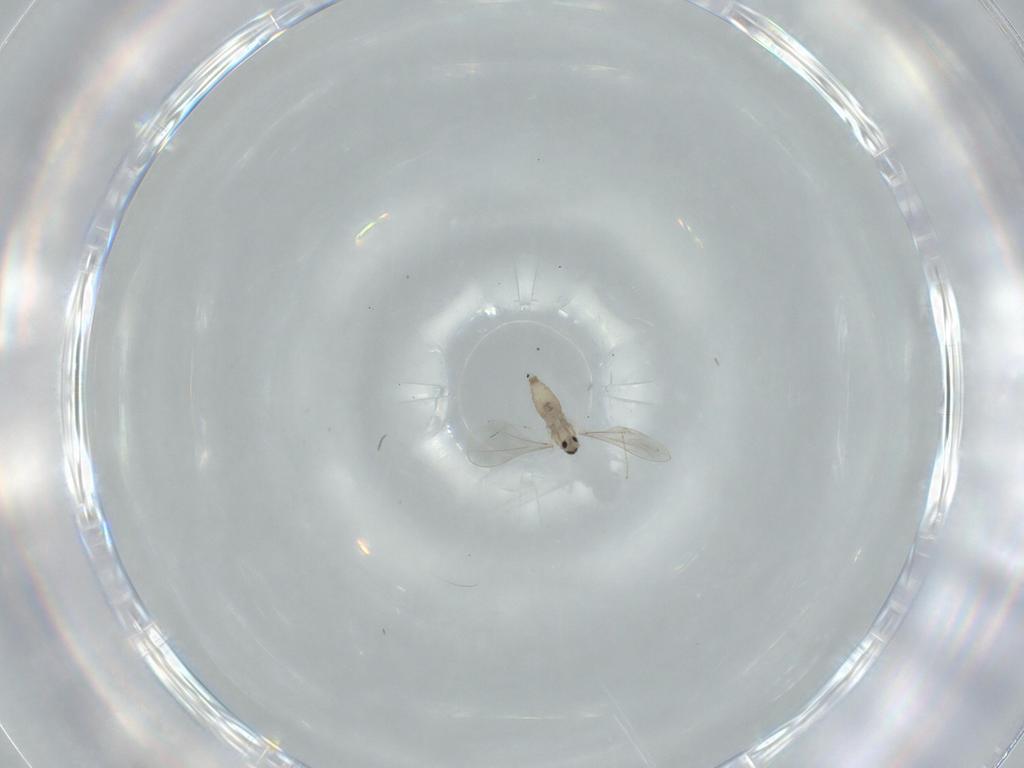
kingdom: Animalia
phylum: Arthropoda
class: Insecta
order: Diptera
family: Cecidomyiidae
